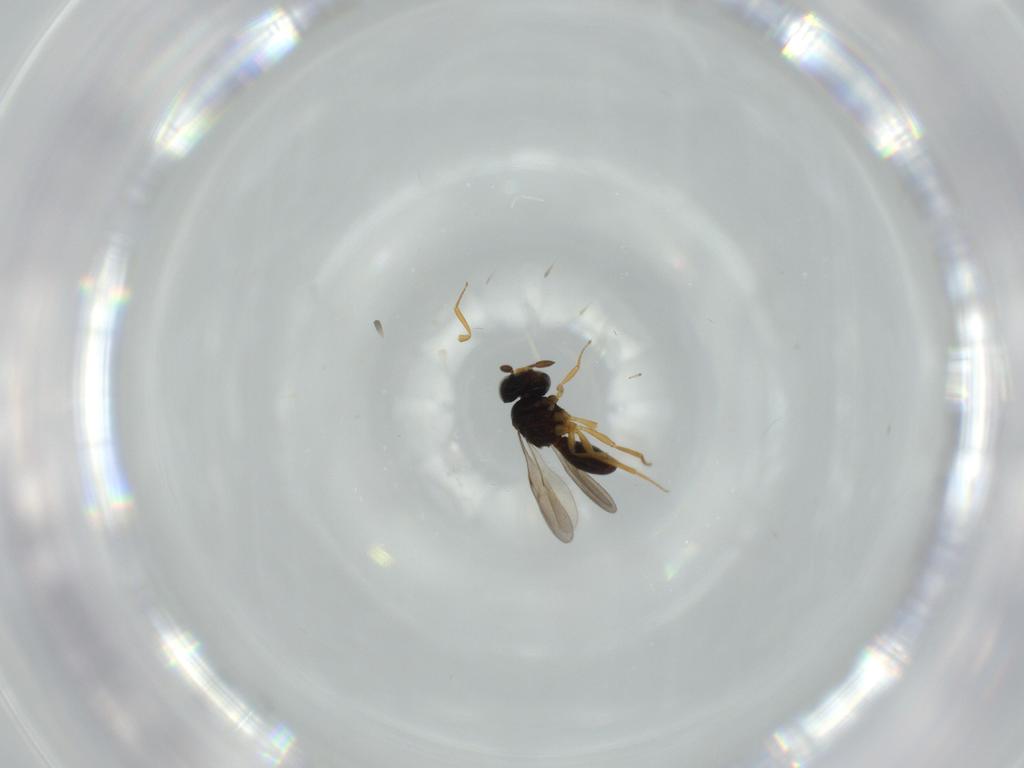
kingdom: Animalia
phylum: Arthropoda
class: Insecta
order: Hymenoptera
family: Scelionidae
